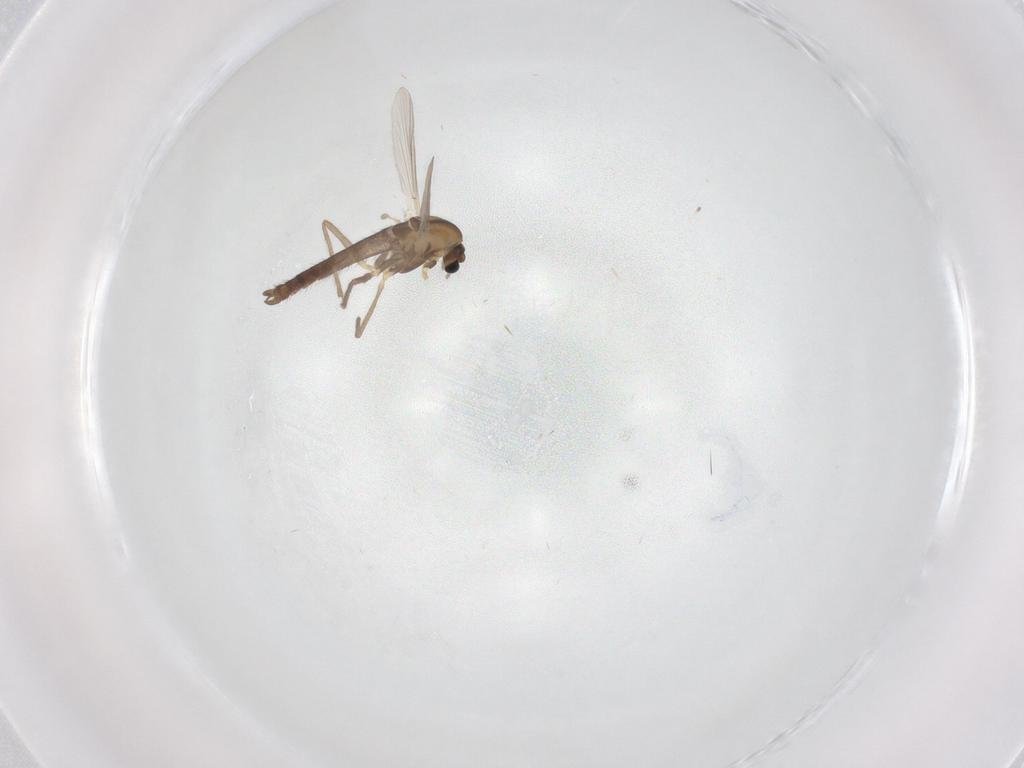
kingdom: Animalia
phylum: Arthropoda
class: Insecta
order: Diptera
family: Chironomidae
